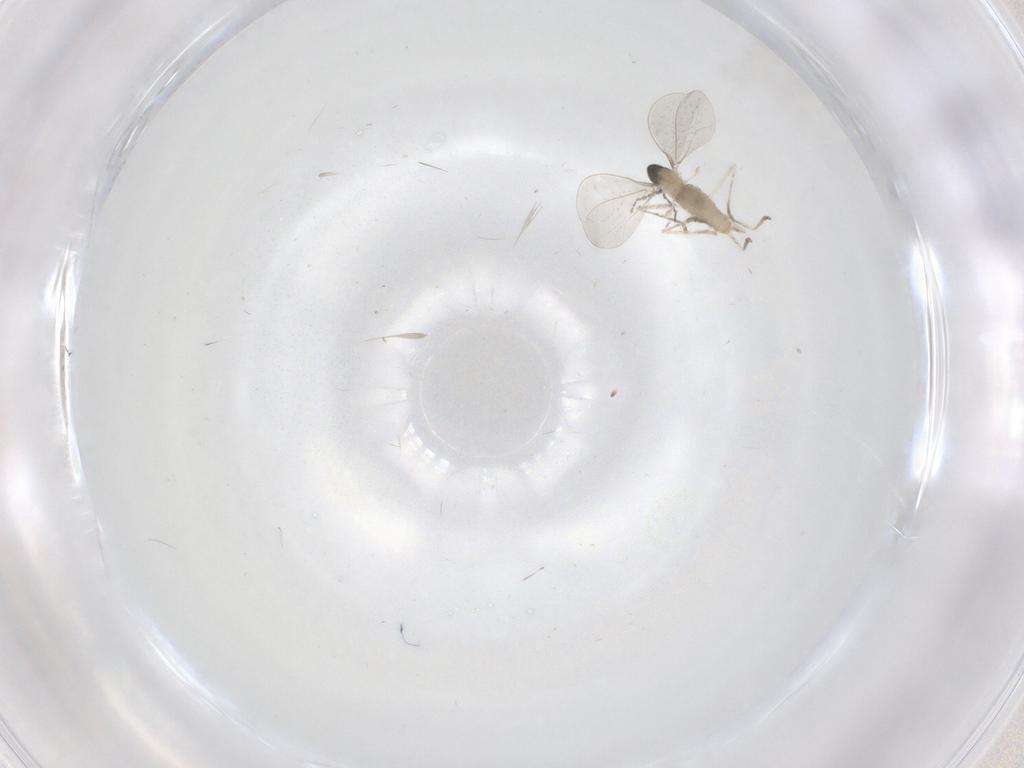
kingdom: Animalia
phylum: Arthropoda
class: Insecta
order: Diptera
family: Cecidomyiidae
